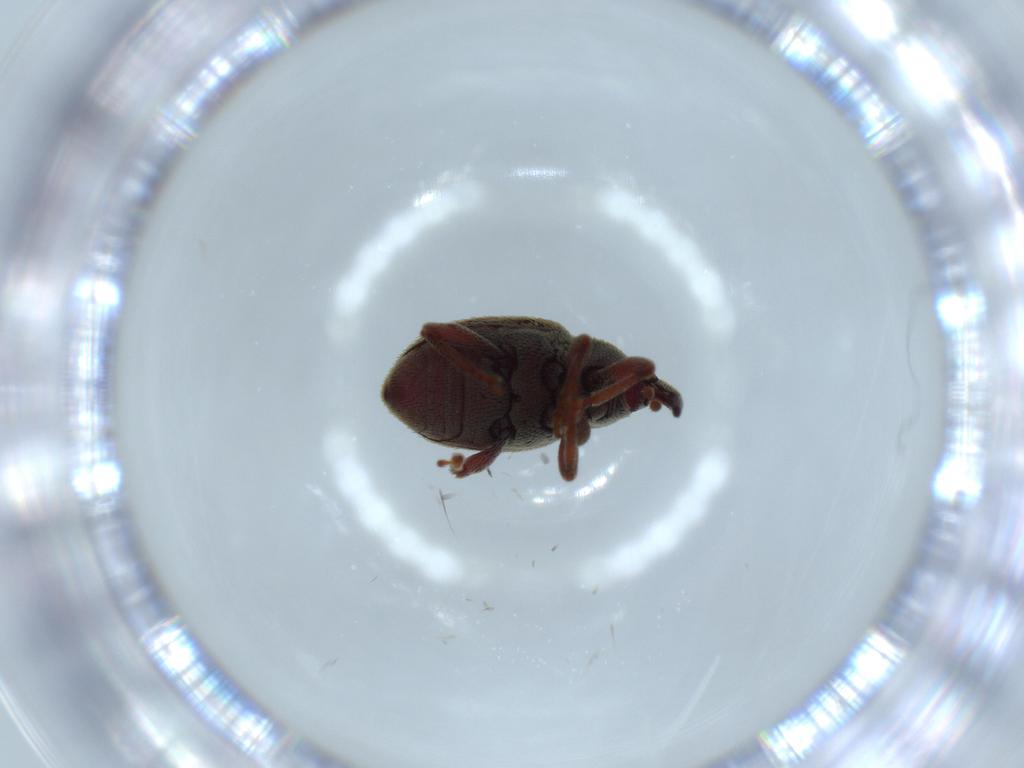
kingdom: Animalia
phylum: Arthropoda
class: Insecta
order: Coleoptera
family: Curculionidae
